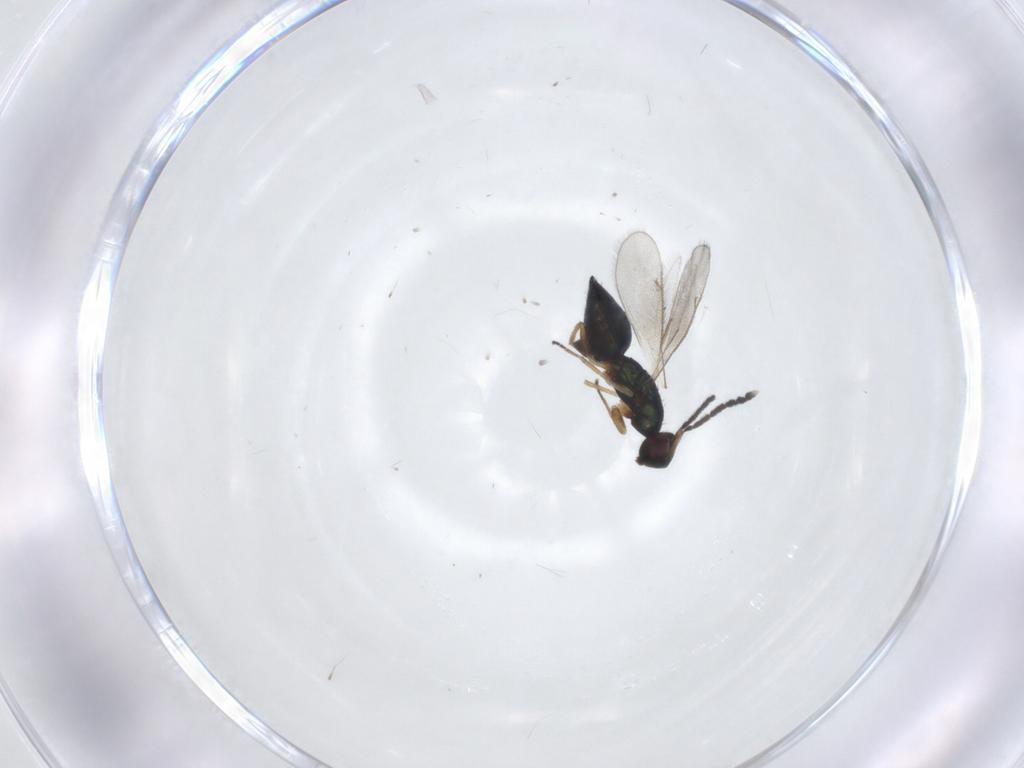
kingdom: Animalia
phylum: Arthropoda
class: Insecta
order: Hymenoptera
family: Eulophidae
